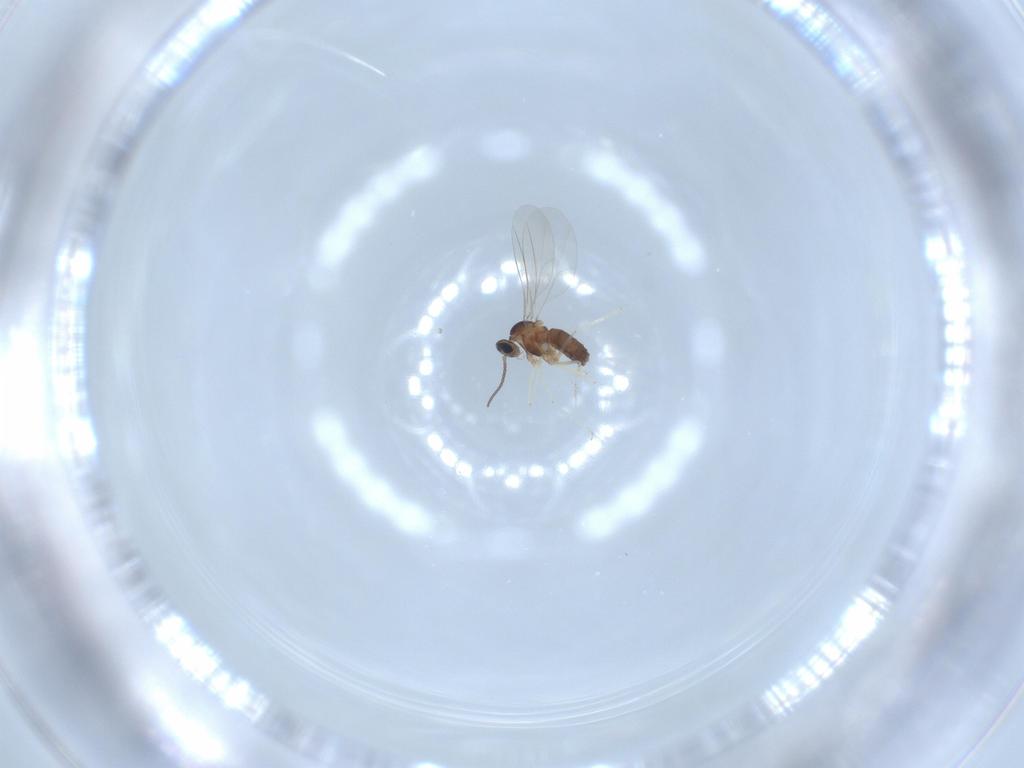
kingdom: Animalia
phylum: Arthropoda
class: Insecta
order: Diptera
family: Cecidomyiidae
